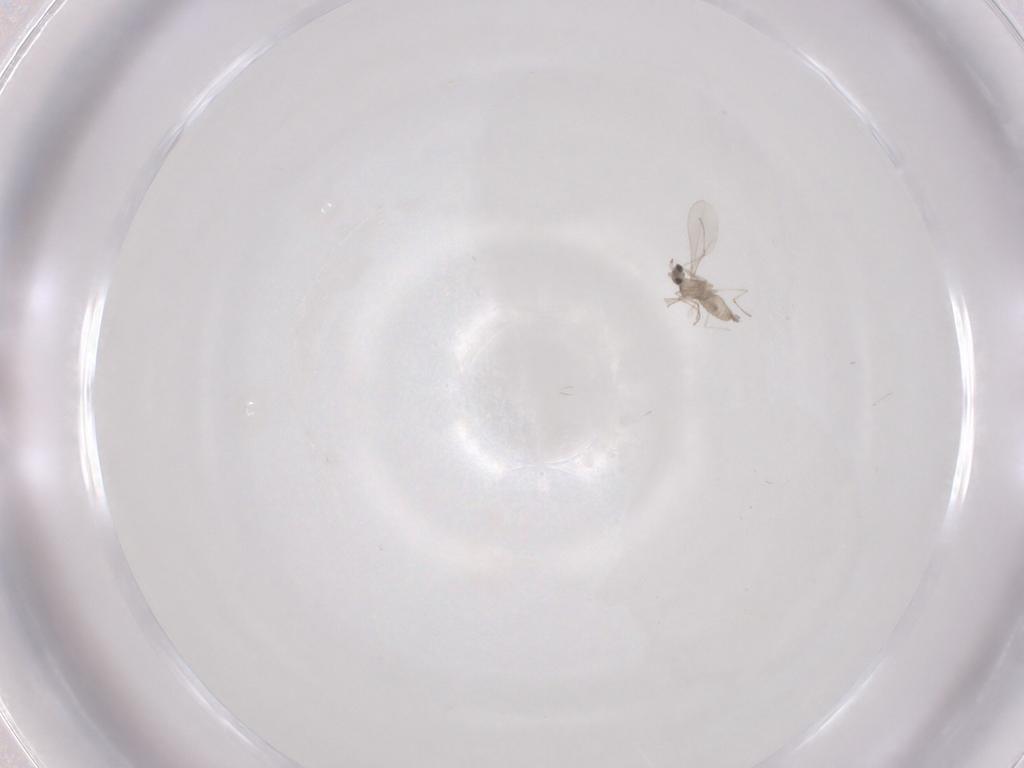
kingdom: Animalia
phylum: Arthropoda
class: Insecta
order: Diptera
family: Cecidomyiidae
